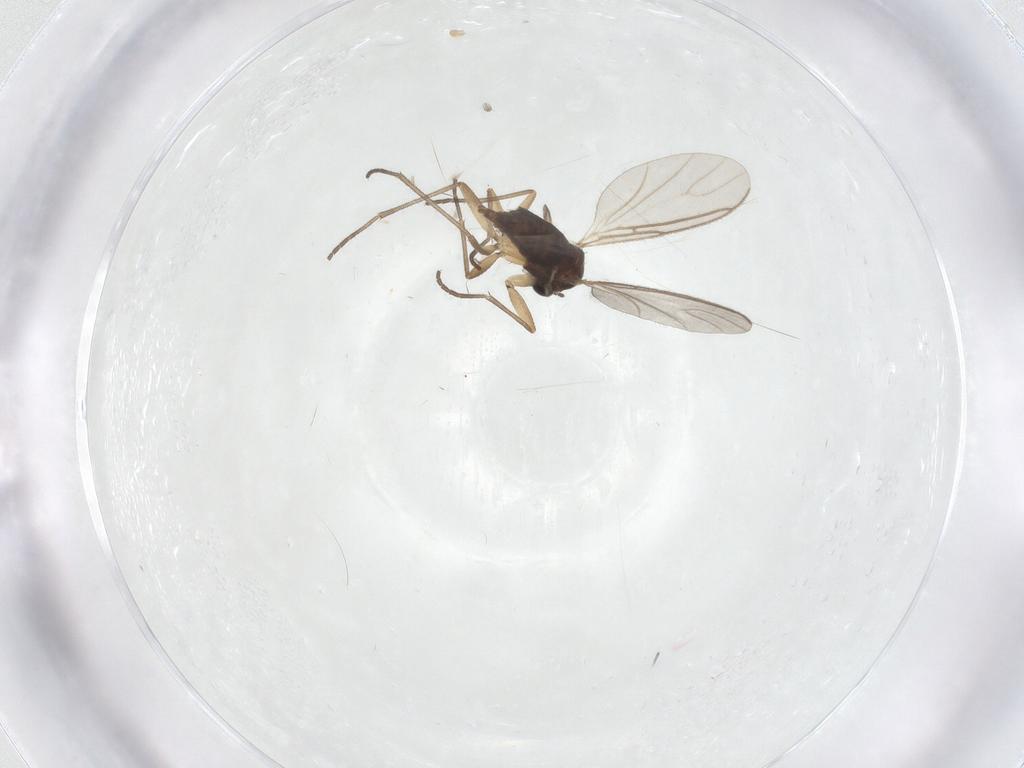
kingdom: Animalia
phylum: Arthropoda
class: Insecta
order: Diptera
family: Sciaridae
